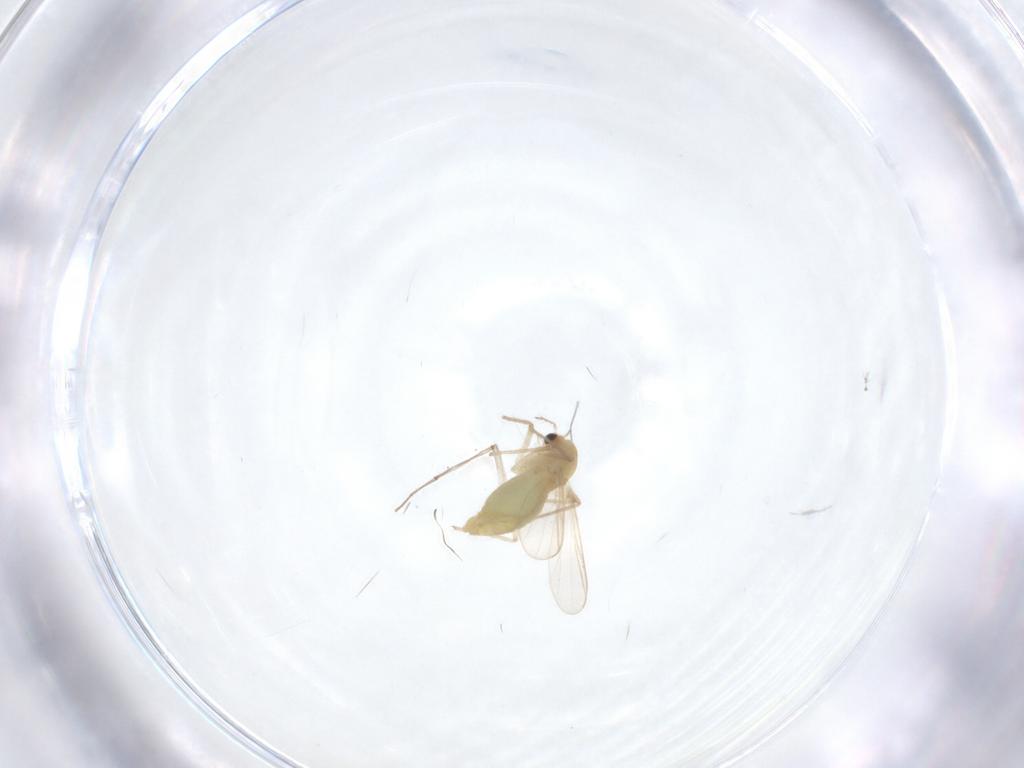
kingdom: Animalia
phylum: Arthropoda
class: Insecta
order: Diptera
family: Chironomidae
